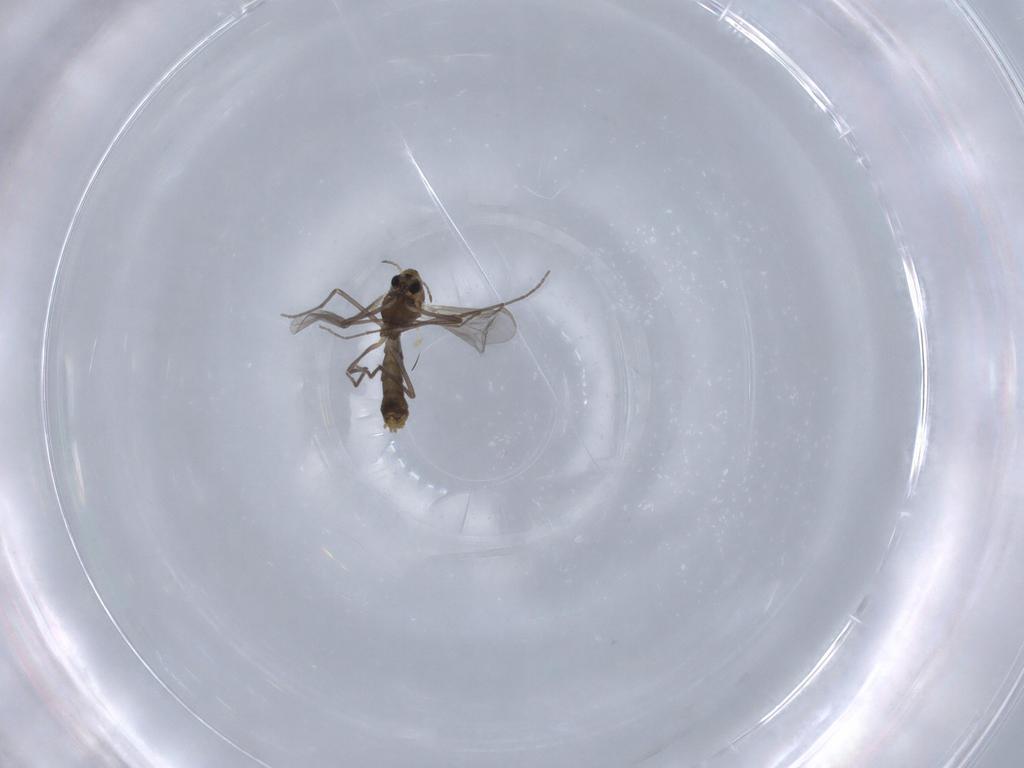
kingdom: Animalia
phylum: Arthropoda
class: Insecta
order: Diptera
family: Chironomidae
